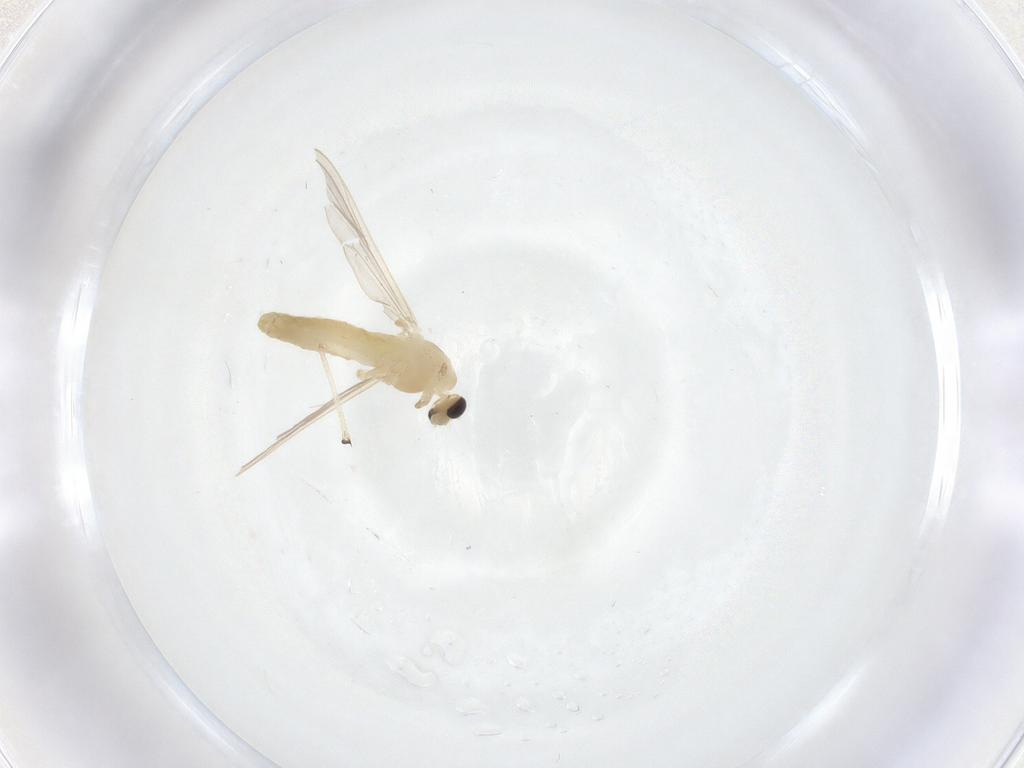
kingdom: Animalia
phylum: Arthropoda
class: Insecta
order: Diptera
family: Chironomidae
